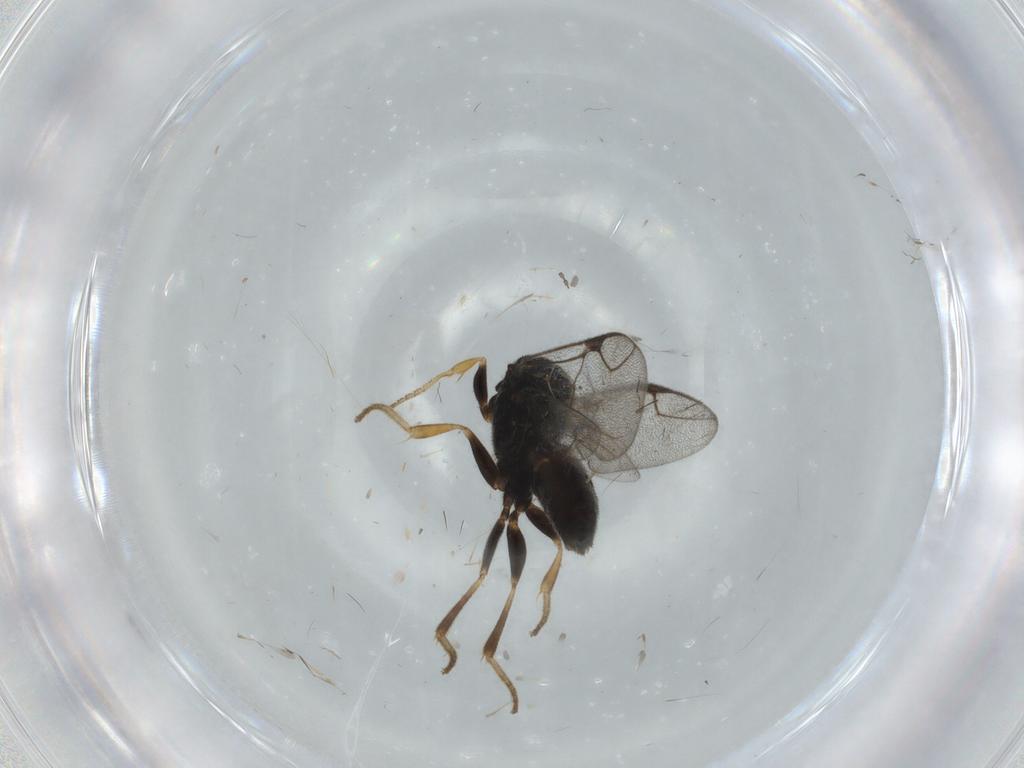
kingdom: Animalia
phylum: Arthropoda
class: Insecta
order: Hymenoptera
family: Dryinidae
